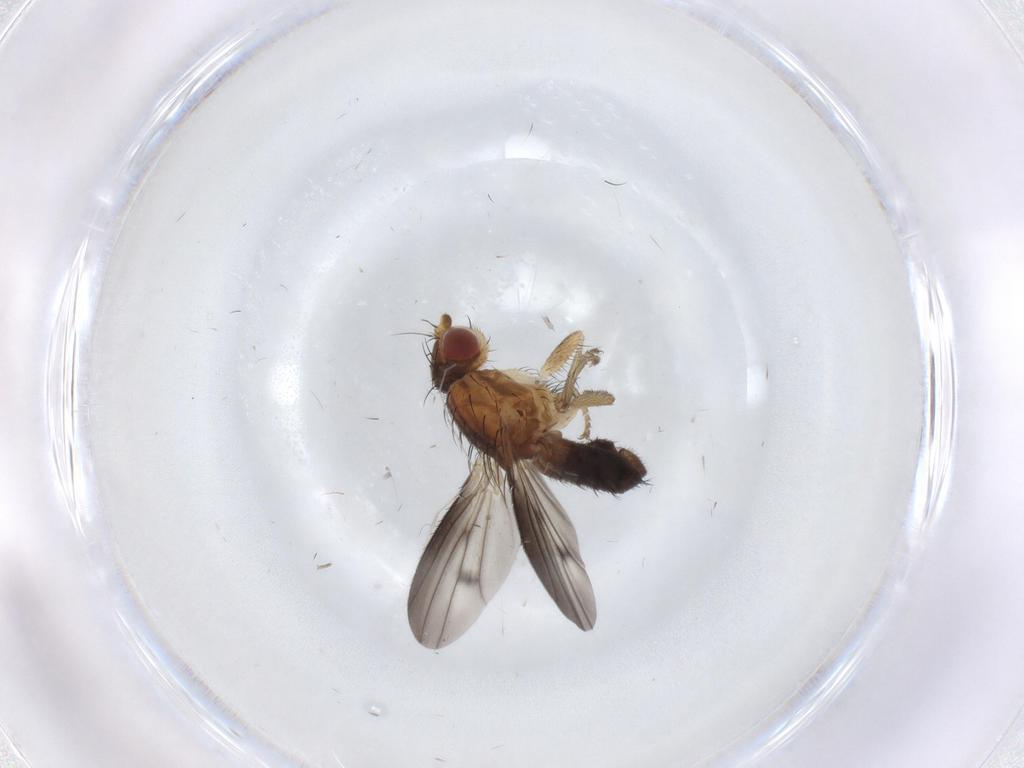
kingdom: Animalia
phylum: Arthropoda
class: Insecta
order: Diptera
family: Heleomyzidae
